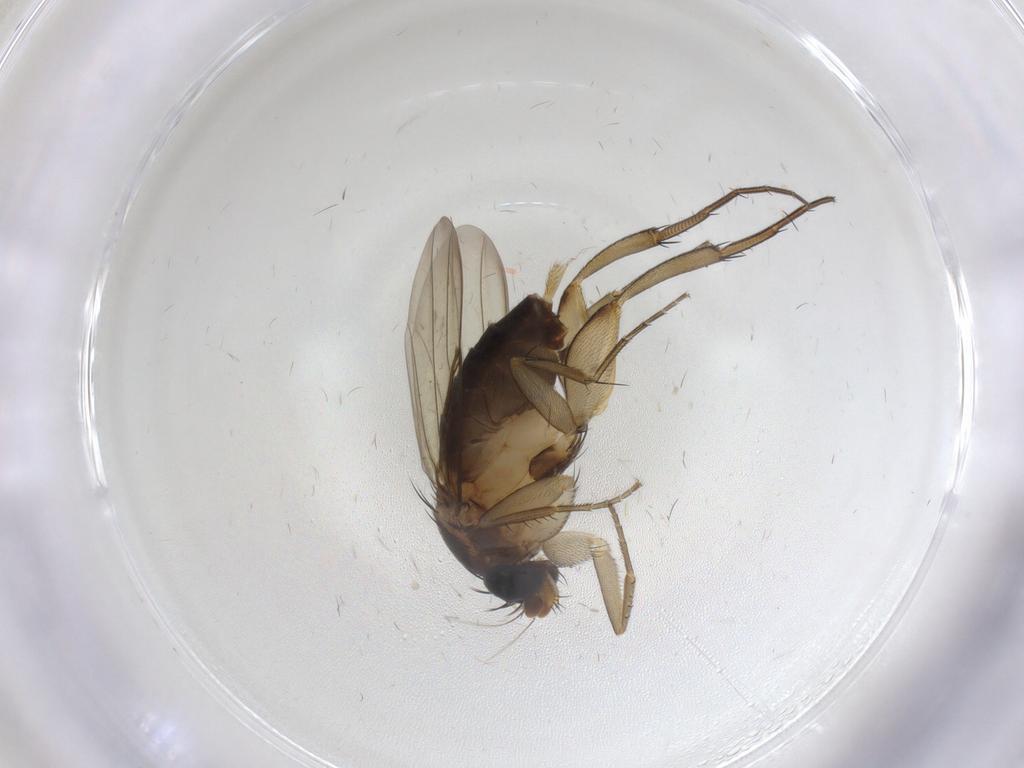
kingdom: Animalia
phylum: Arthropoda
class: Insecta
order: Diptera
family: Phoridae
